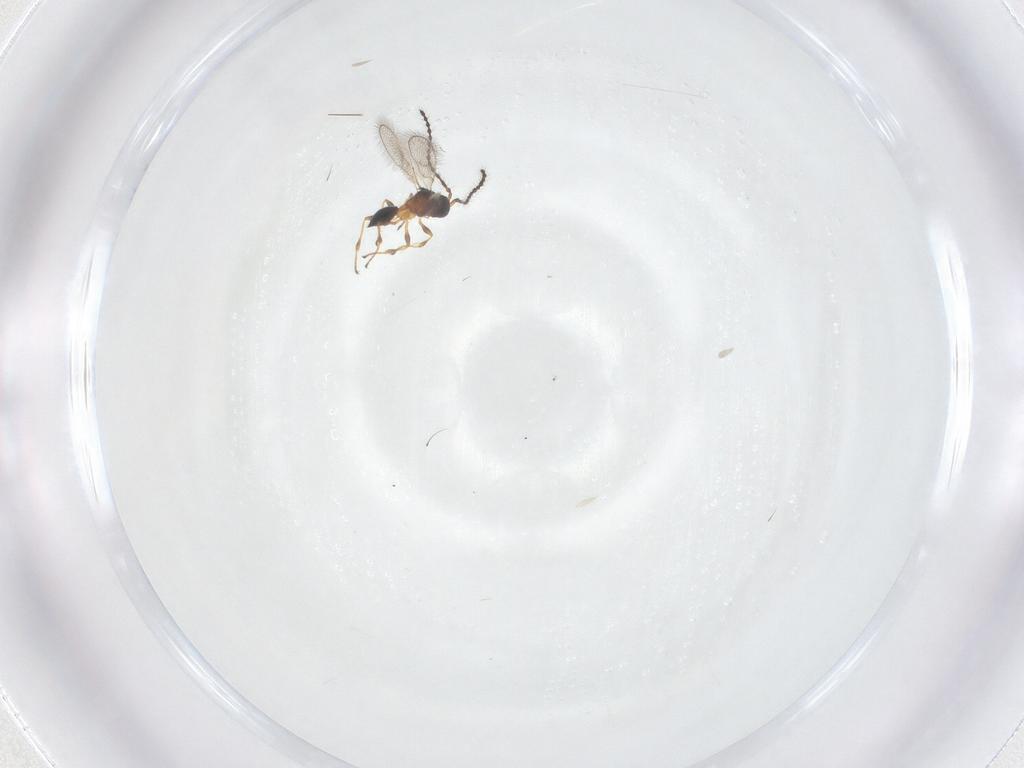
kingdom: Animalia
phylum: Arthropoda
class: Insecta
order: Hymenoptera
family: Diapriidae
